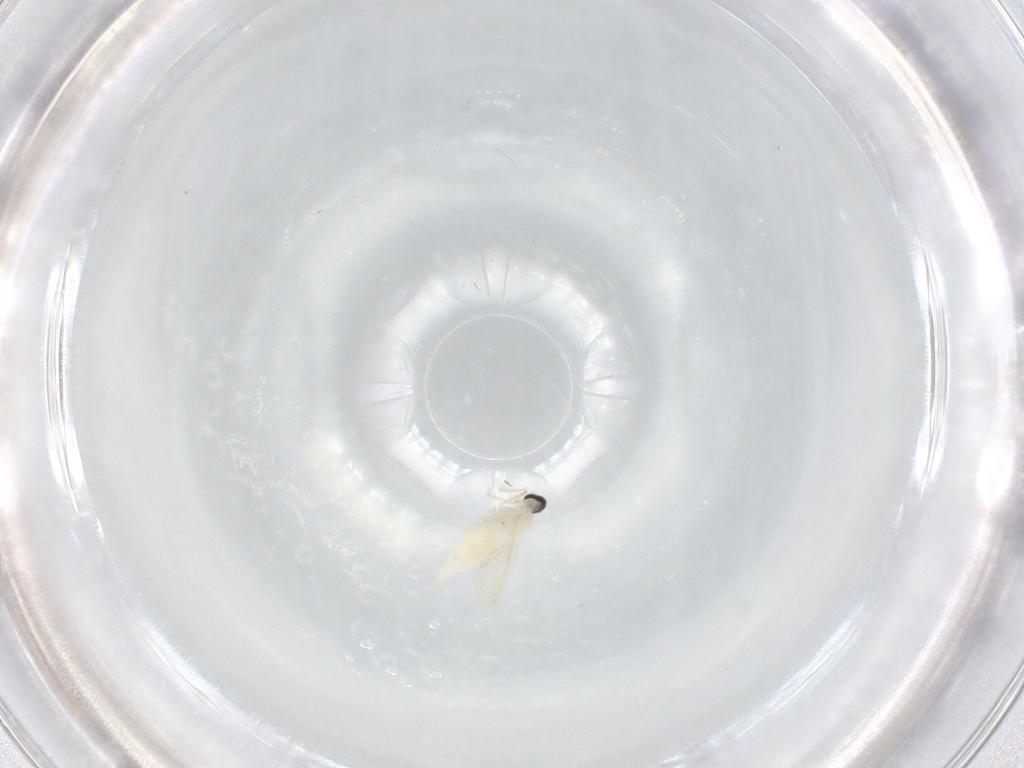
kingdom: Animalia
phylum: Arthropoda
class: Insecta
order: Diptera
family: Cecidomyiidae
